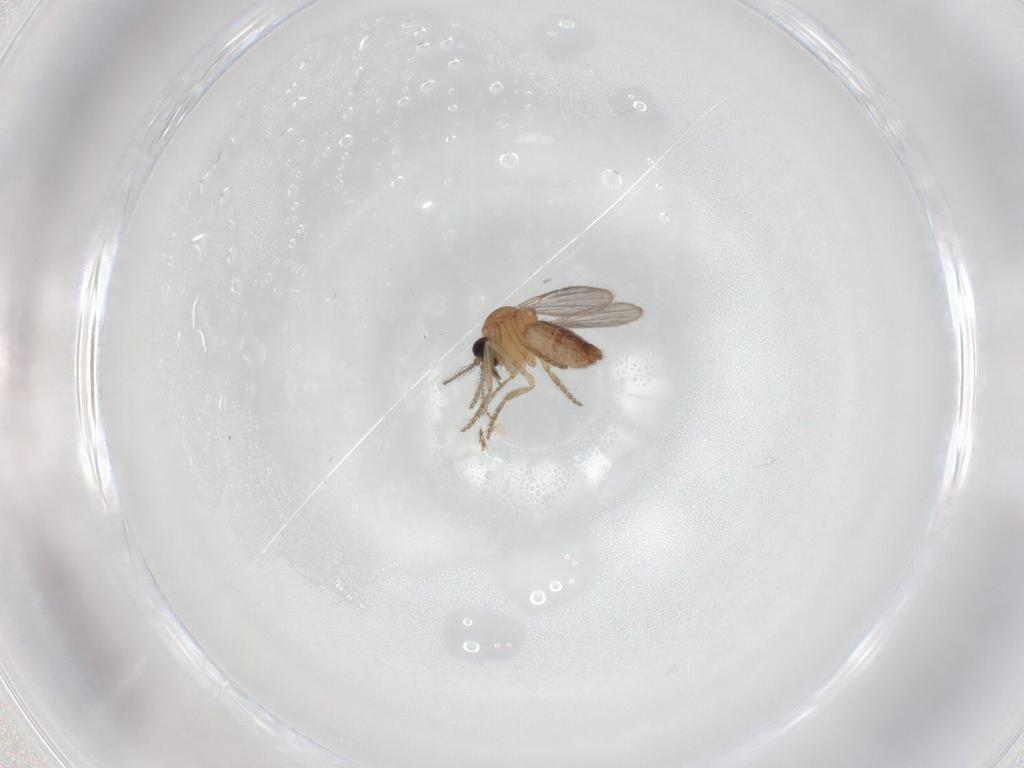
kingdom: Animalia
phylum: Arthropoda
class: Insecta
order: Diptera
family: Ceratopogonidae
